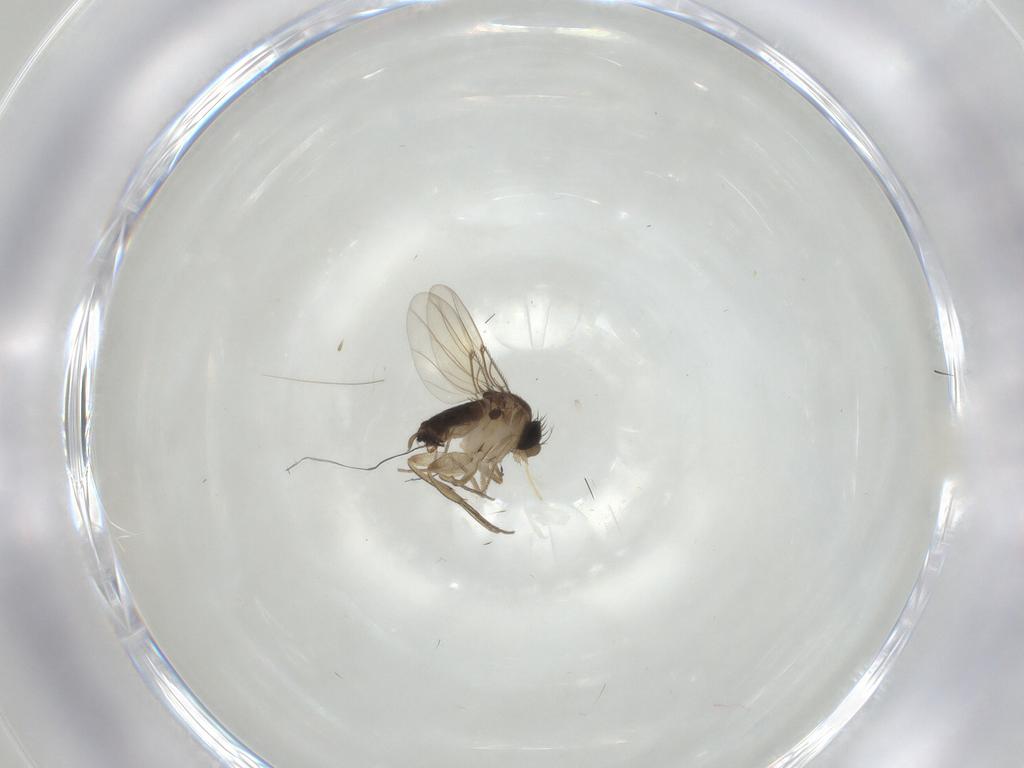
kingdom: Animalia
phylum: Arthropoda
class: Insecta
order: Diptera
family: Phoridae
